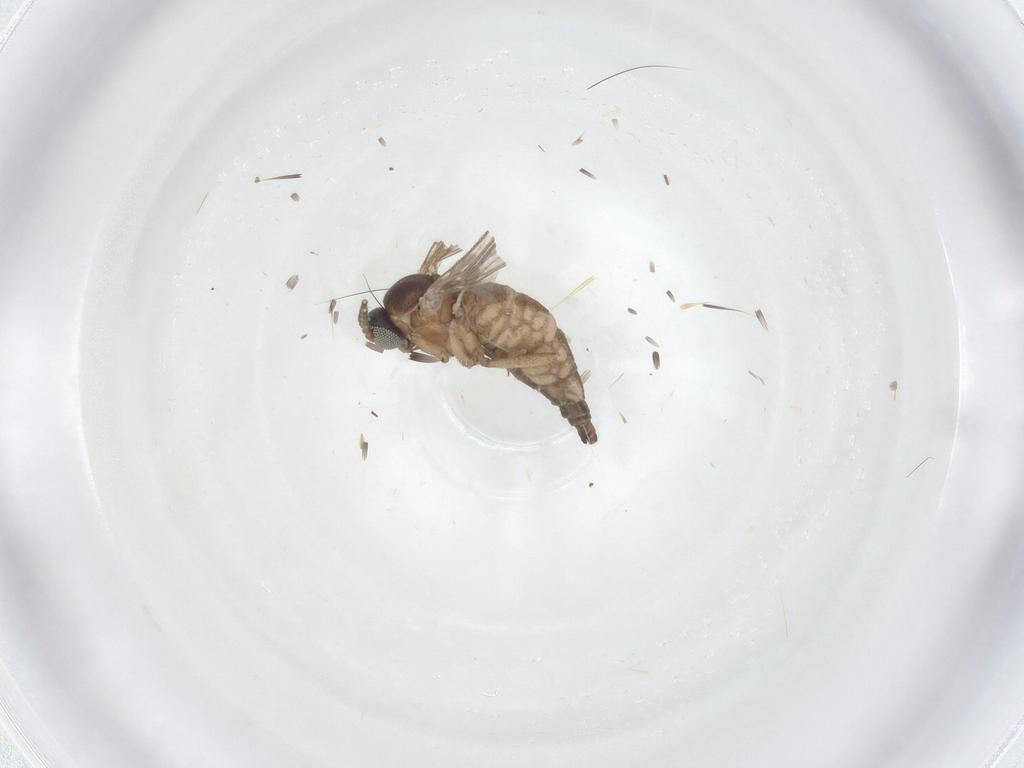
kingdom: Animalia
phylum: Arthropoda
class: Insecta
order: Diptera
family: Sciaridae
